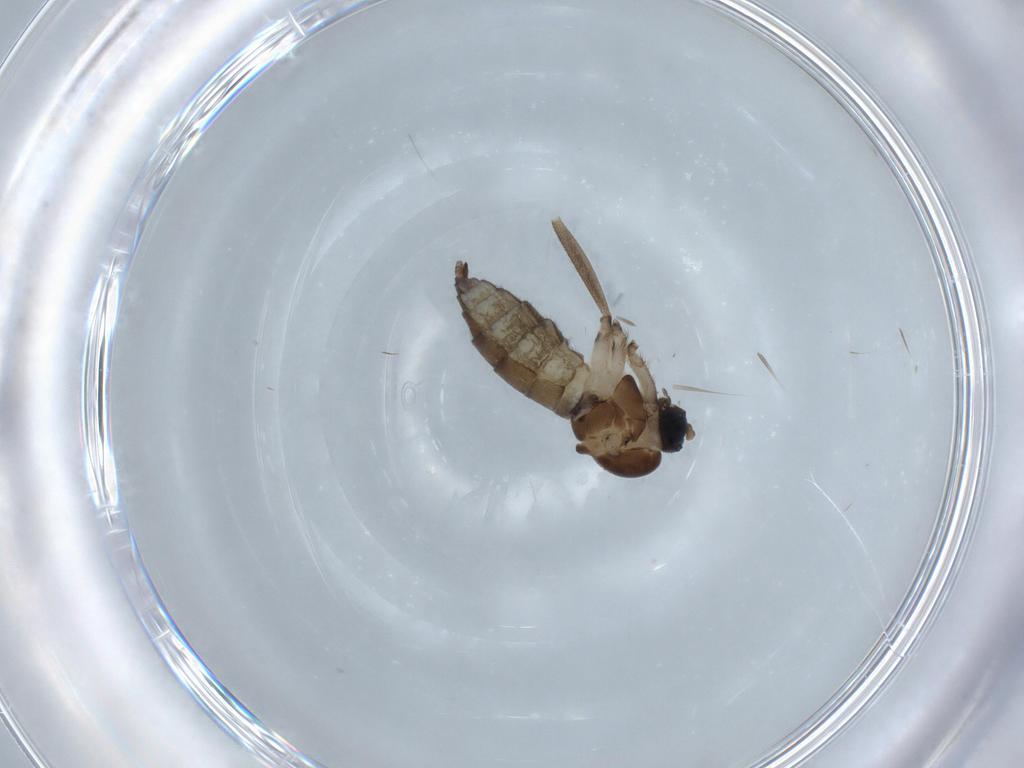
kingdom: Animalia
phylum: Arthropoda
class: Insecta
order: Diptera
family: Sciaridae
